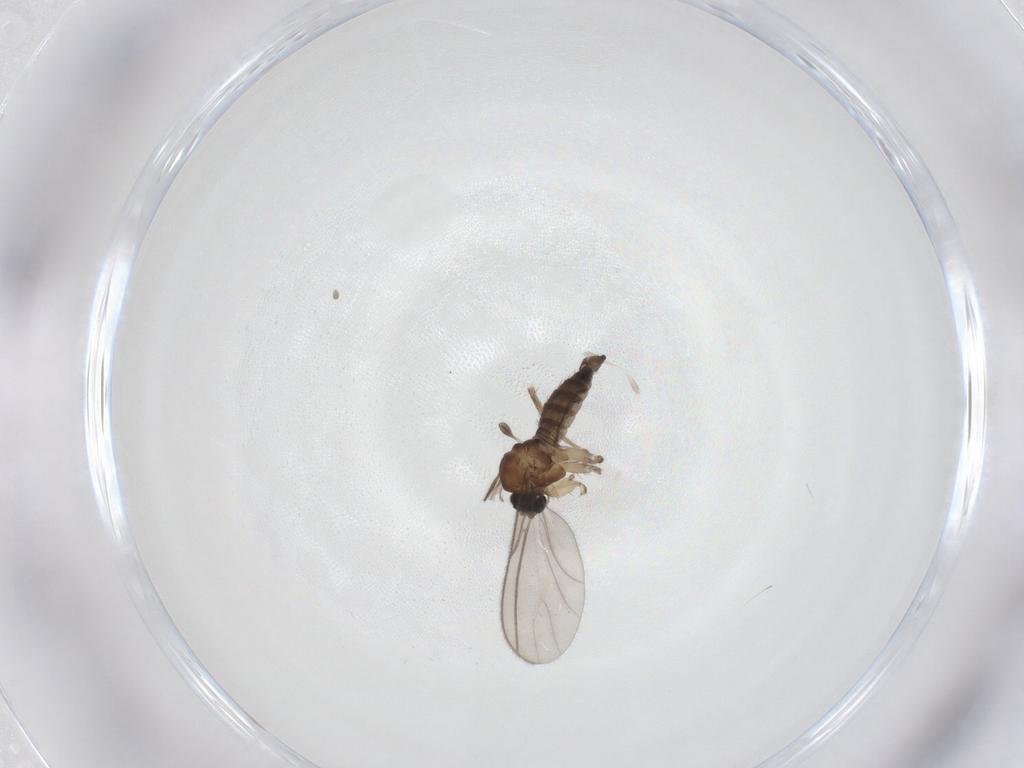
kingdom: Animalia
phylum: Arthropoda
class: Insecta
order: Diptera
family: Sciaridae
